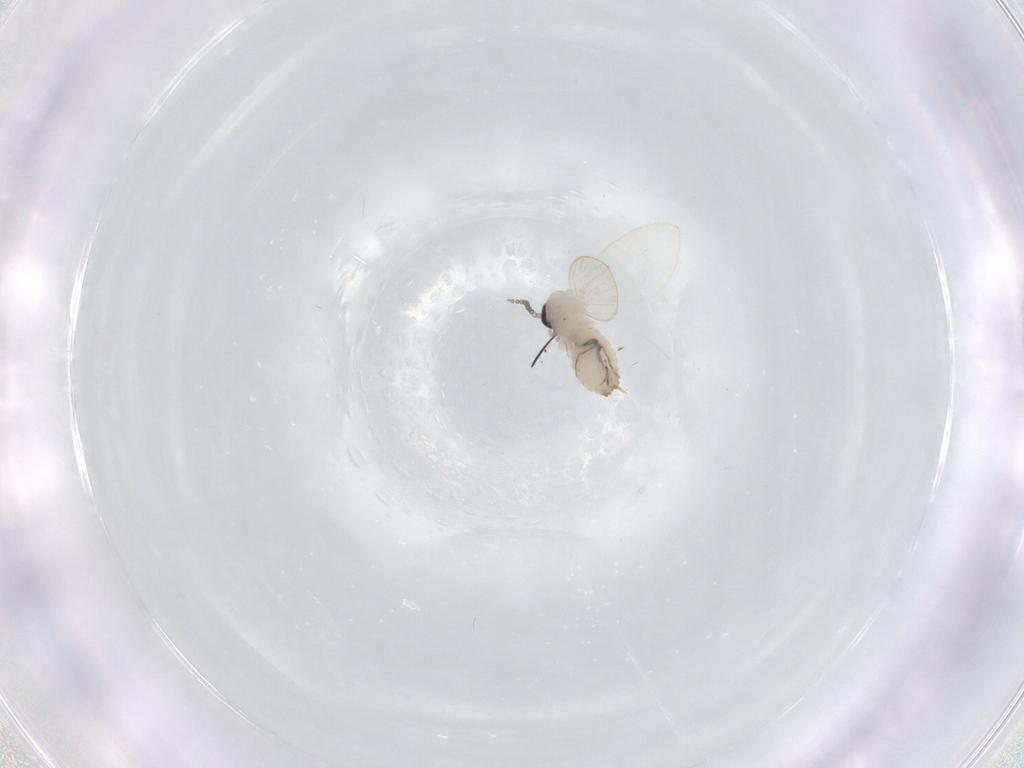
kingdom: Animalia
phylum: Arthropoda
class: Insecta
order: Diptera
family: Psychodidae
